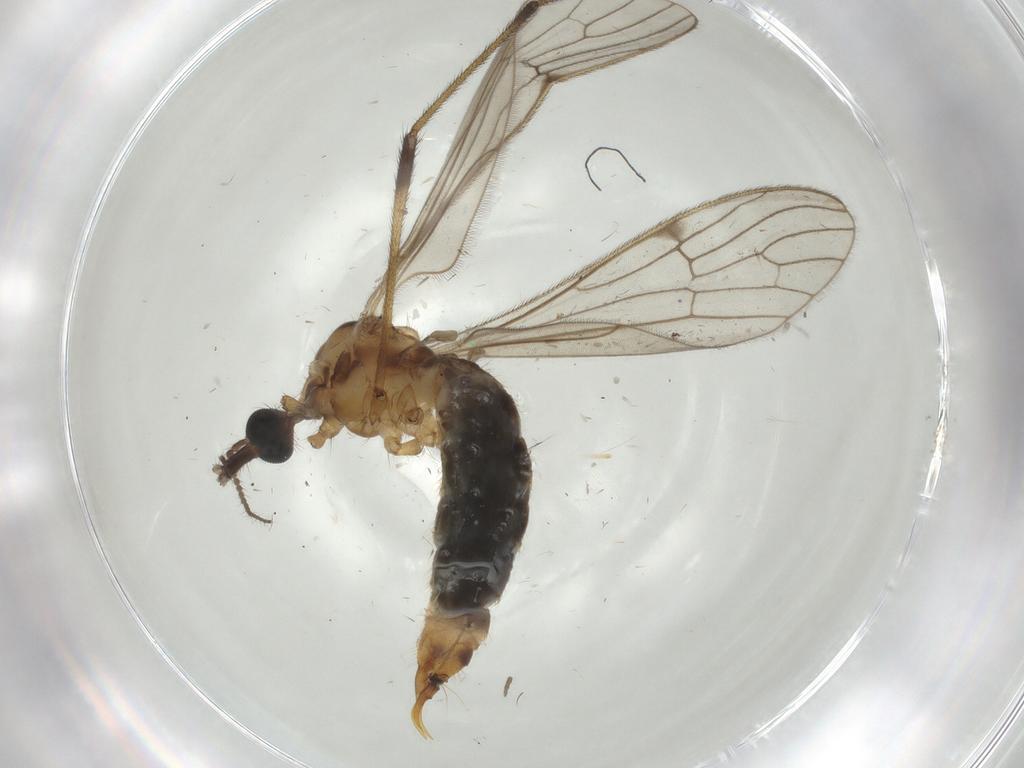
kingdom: Animalia
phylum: Arthropoda
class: Insecta
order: Diptera
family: Limoniidae
